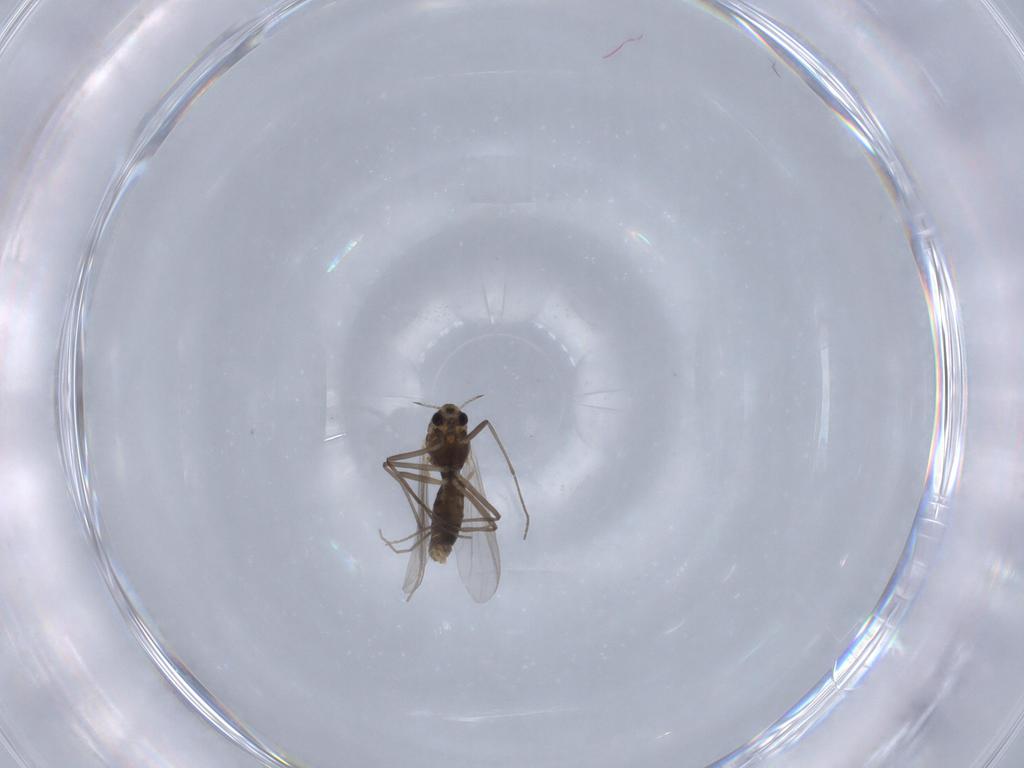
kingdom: Animalia
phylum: Arthropoda
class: Insecta
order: Diptera
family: Chironomidae
